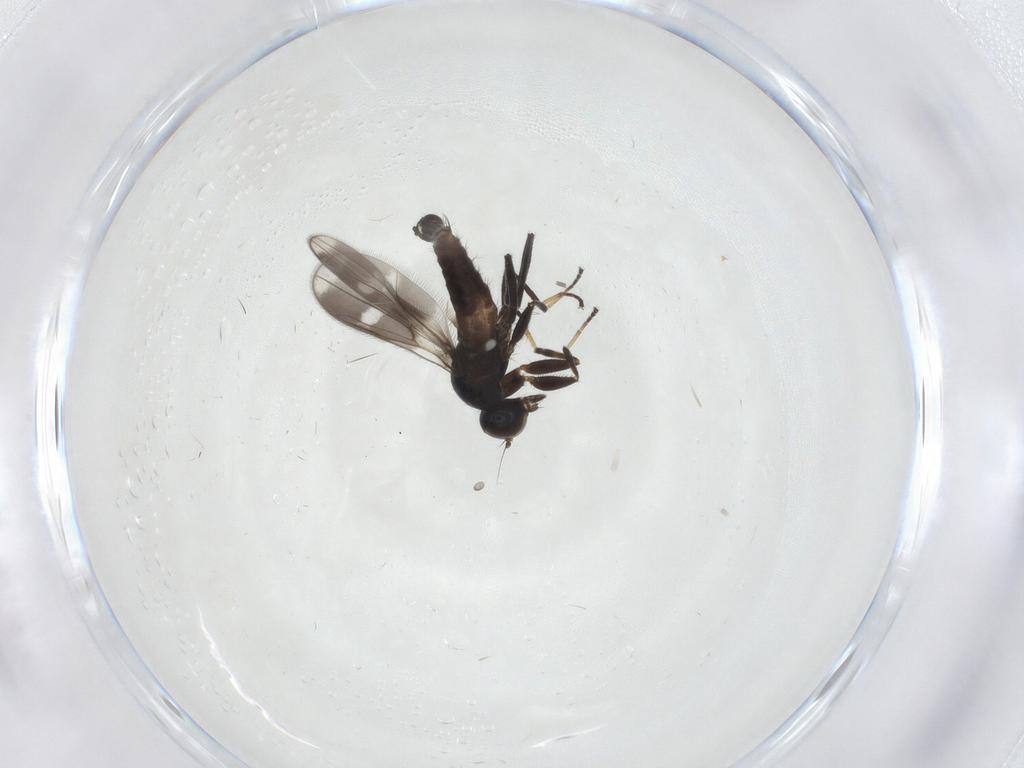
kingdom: Animalia
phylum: Arthropoda
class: Insecta
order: Diptera
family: Hybotidae
